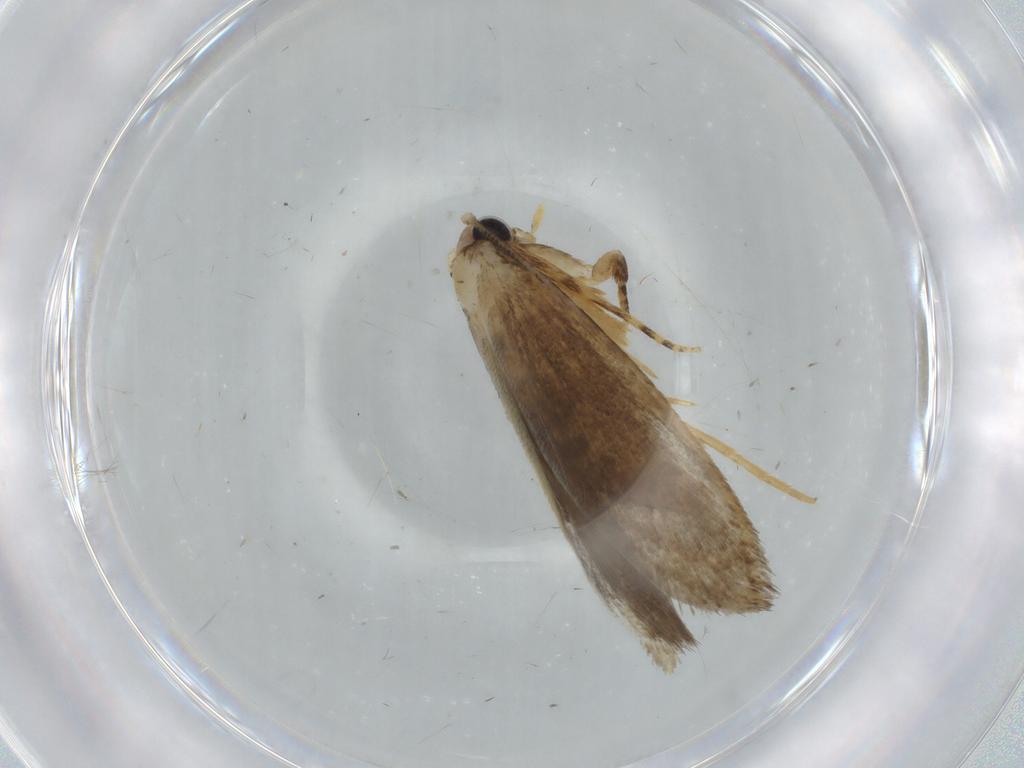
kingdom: Animalia
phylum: Arthropoda
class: Insecta
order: Lepidoptera
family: Tineidae
